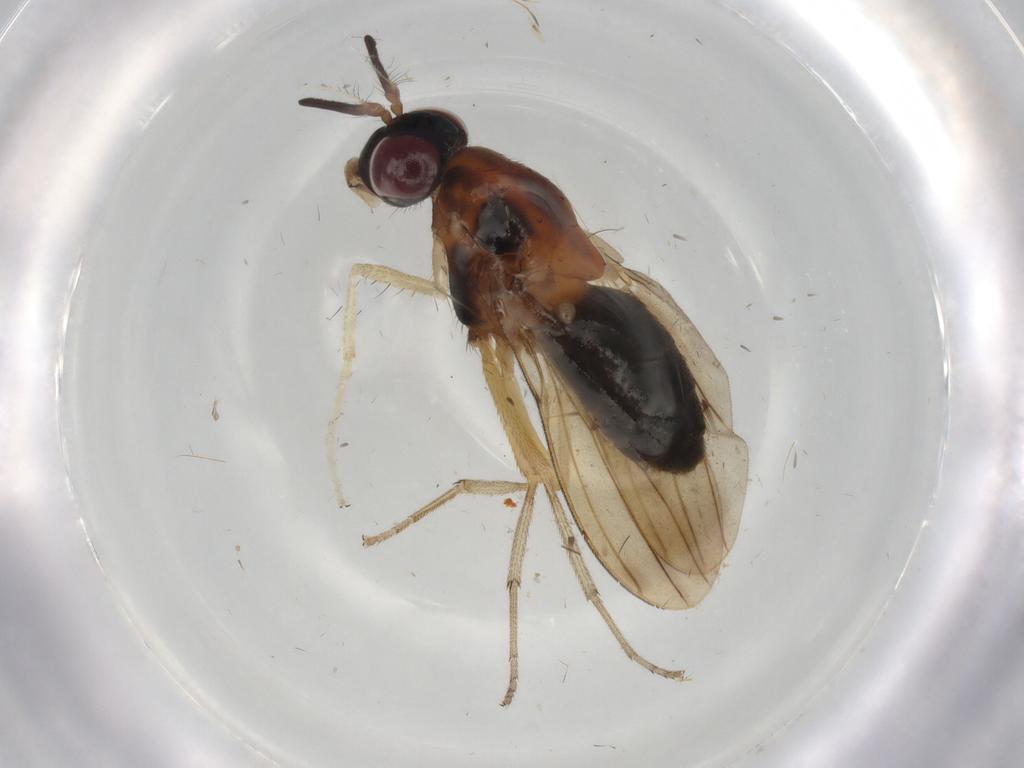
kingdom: Animalia
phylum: Arthropoda
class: Insecta
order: Diptera
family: Lauxaniidae
